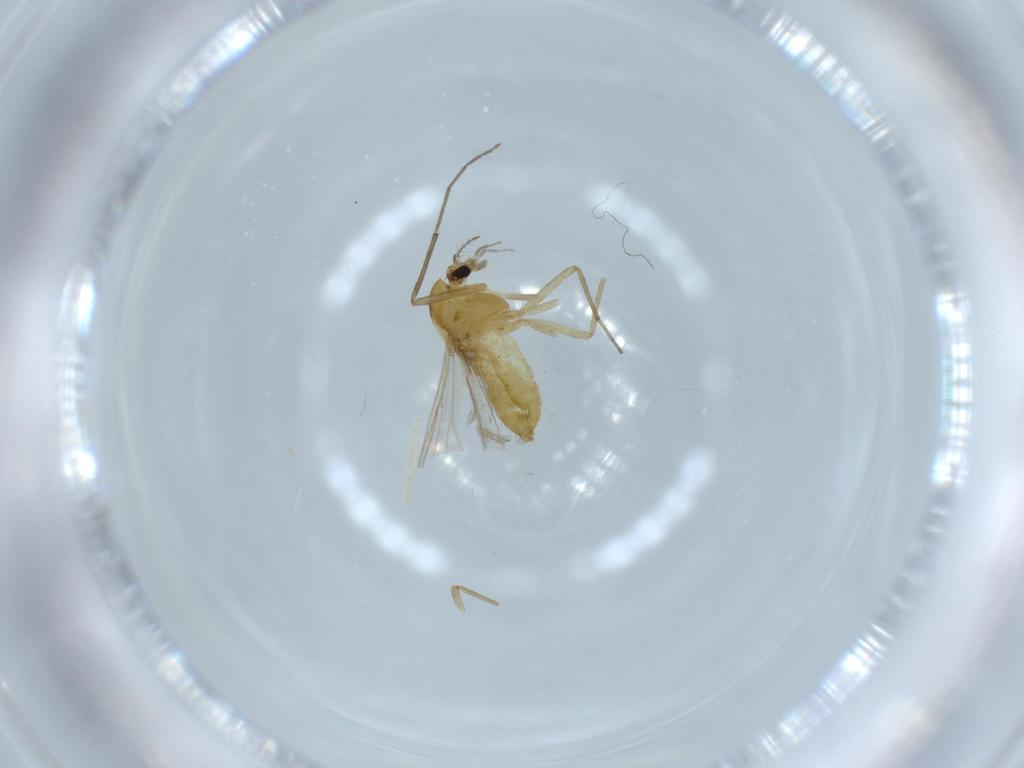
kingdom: Animalia
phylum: Arthropoda
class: Insecta
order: Diptera
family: Chironomidae
